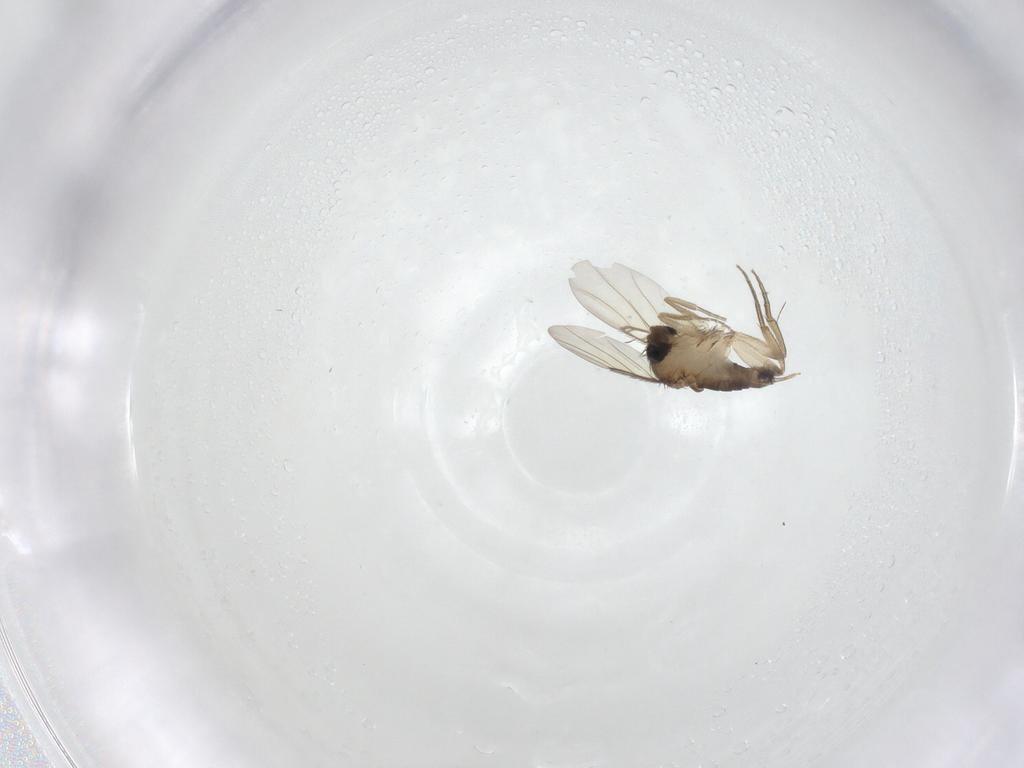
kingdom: Animalia
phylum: Arthropoda
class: Insecta
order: Diptera
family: Phoridae
